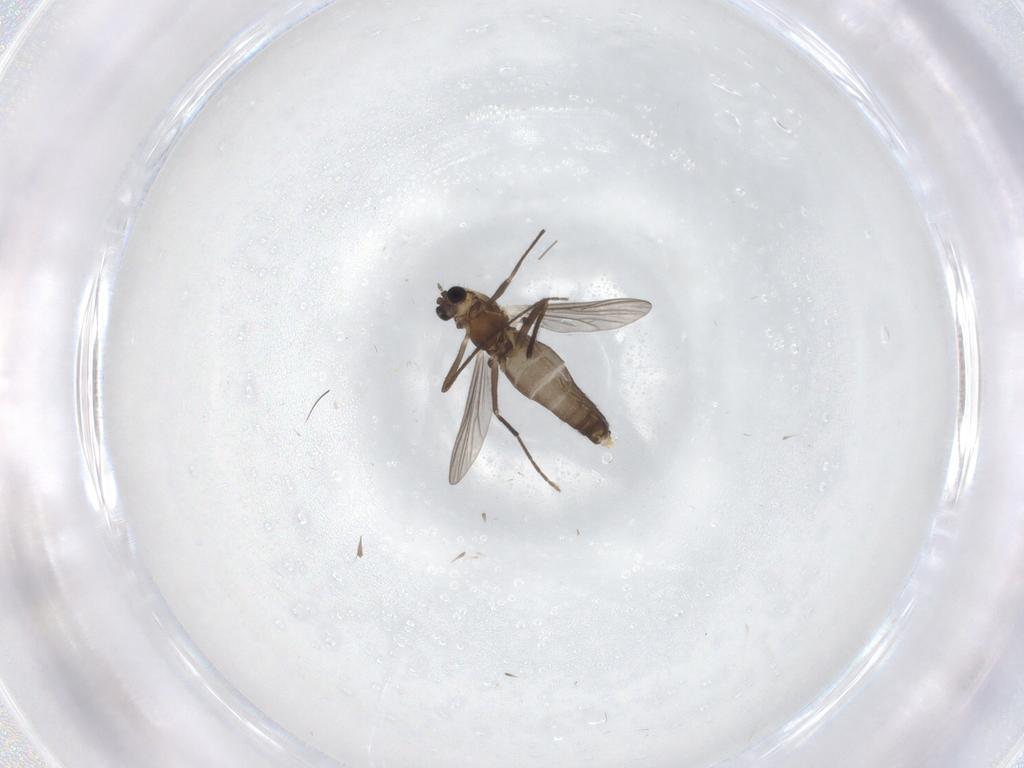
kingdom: Animalia
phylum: Arthropoda
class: Insecta
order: Diptera
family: Chironomidae
